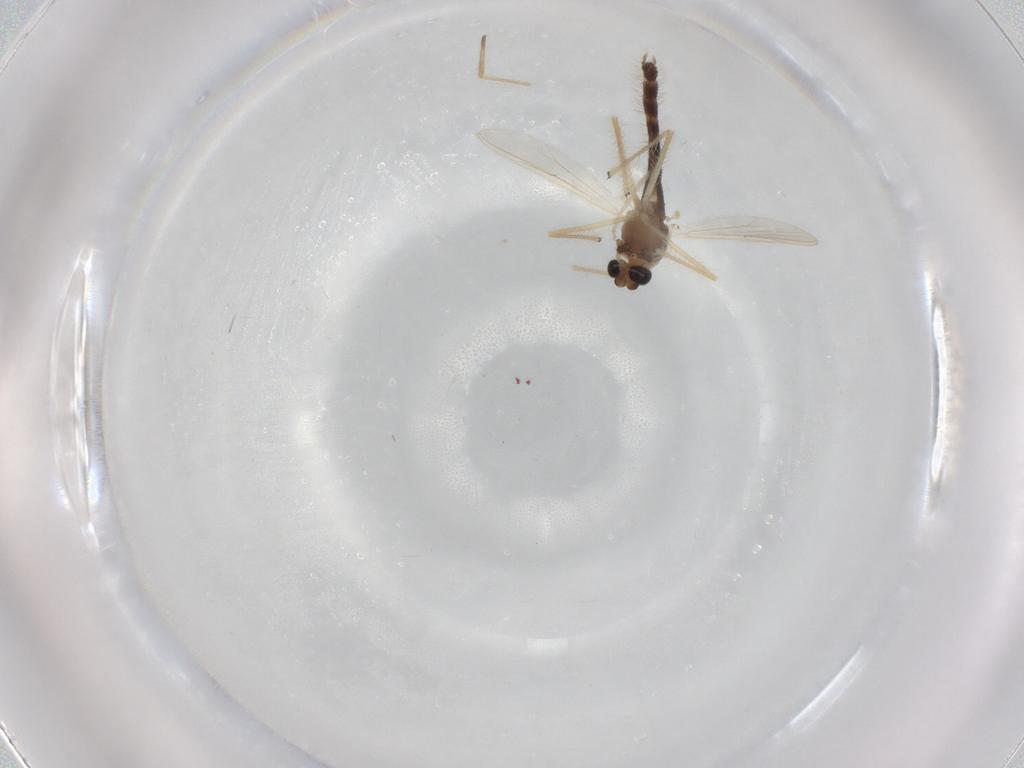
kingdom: Animalia
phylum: Arthropoda
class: Insecta
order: Diptera
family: Chironomidae
